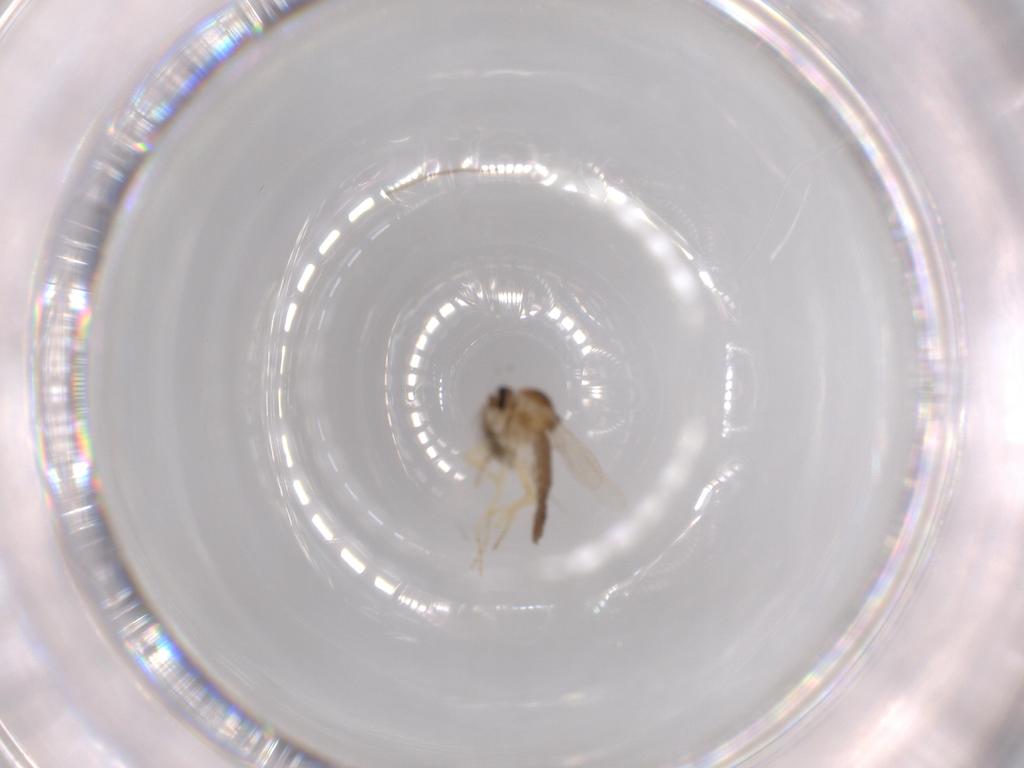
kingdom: Animalia
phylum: Arthropoda
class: Insecta
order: Diptera
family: Ceratopogonidae
